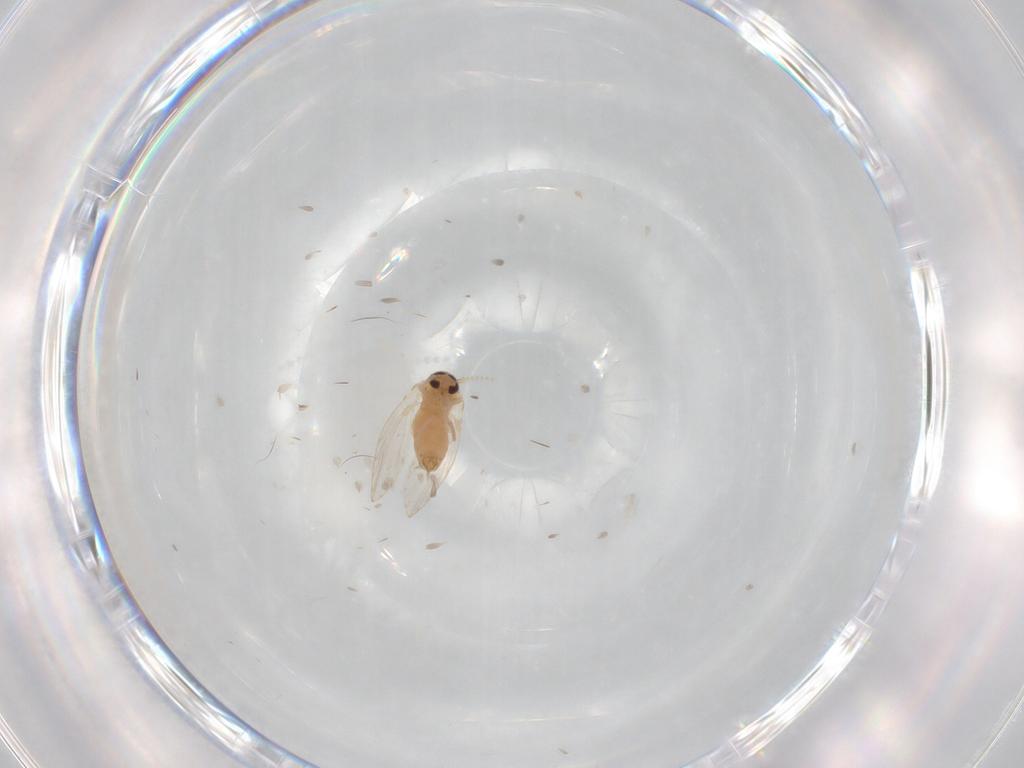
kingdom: Animalia
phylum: Arthropoda
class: Insecta
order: Diptera
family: Psychodidae
